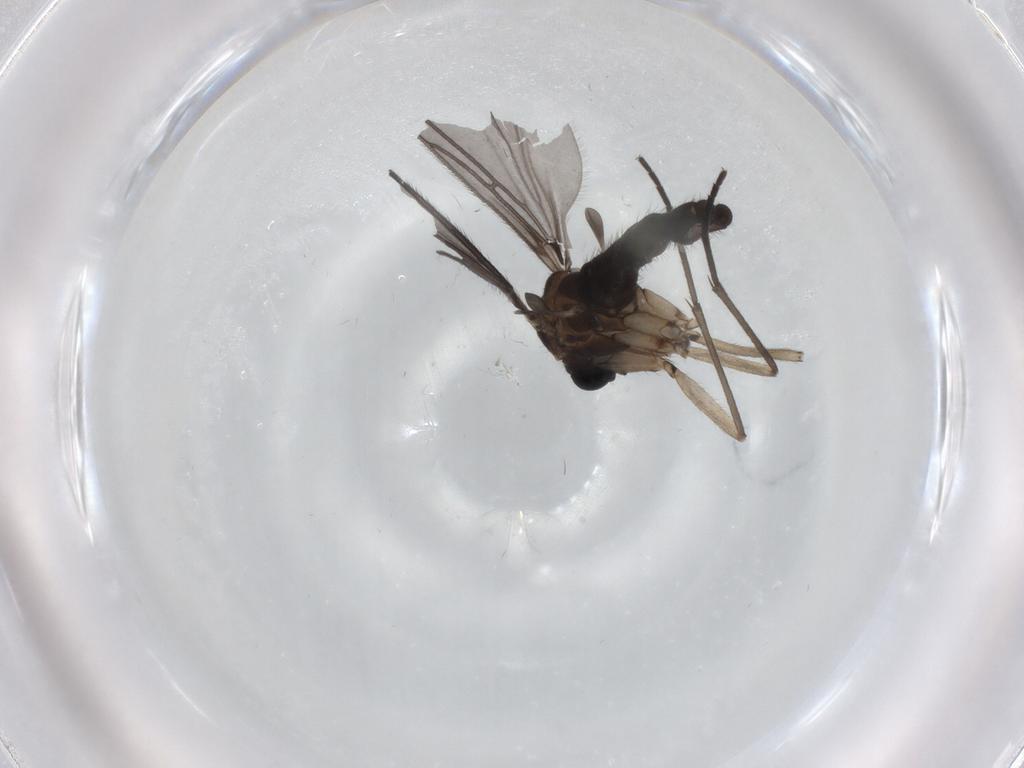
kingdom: Animalia
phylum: Arthropoda
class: Insecta
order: Diptera
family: Sciaridae
